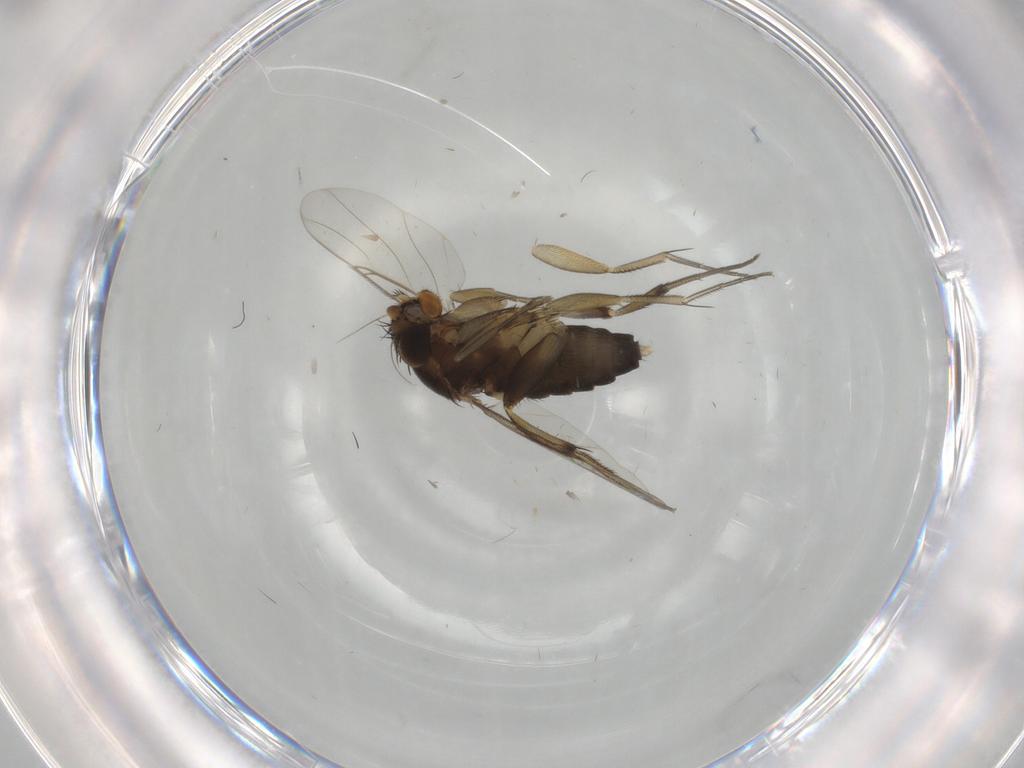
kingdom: Animalia
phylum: Arthropoda
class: Insecta
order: Diptera
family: Phoridae
